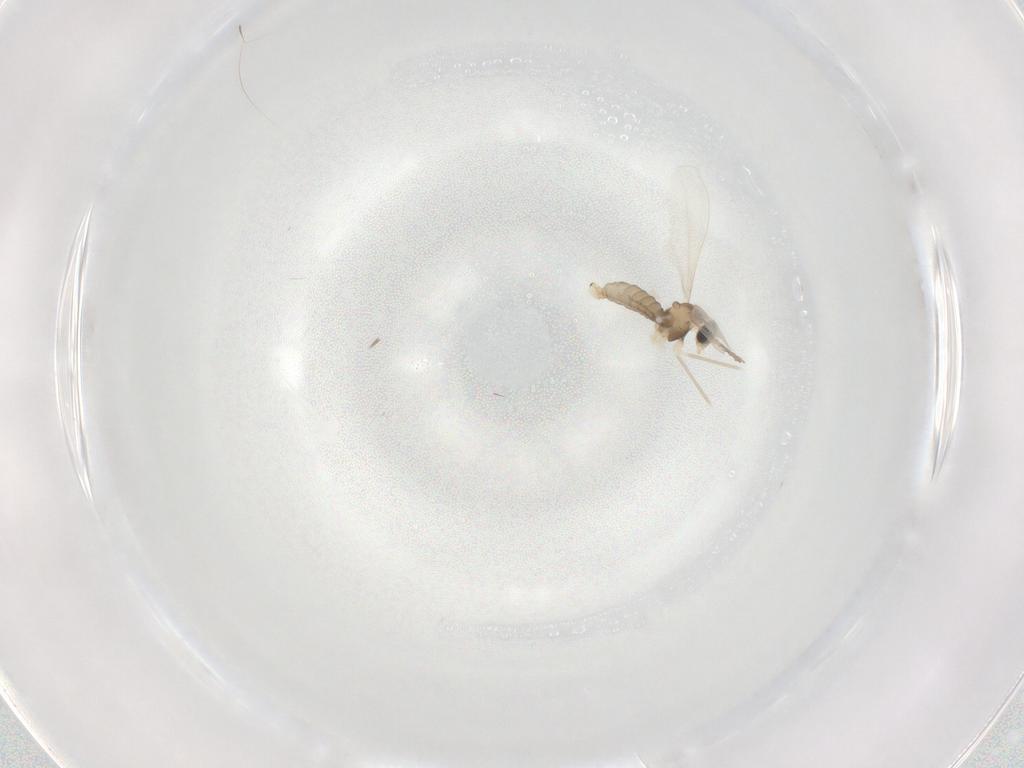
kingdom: Animalia
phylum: Arthropoda
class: Insecta
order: Diptera
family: Cecidomyiidae
